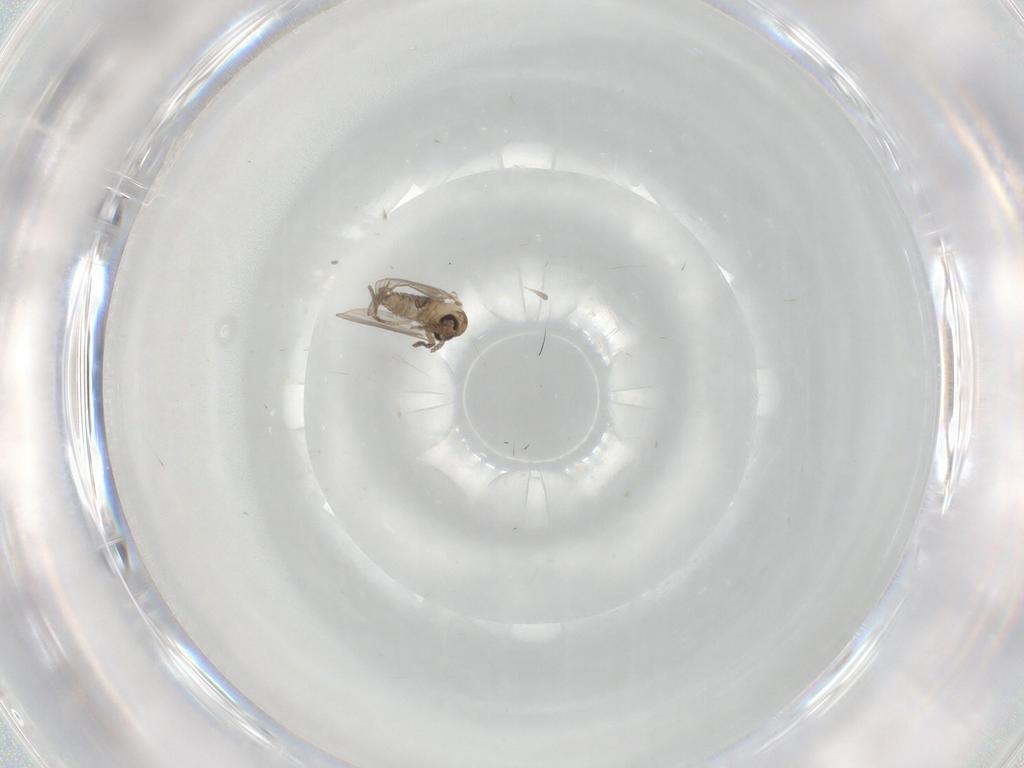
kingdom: Animalia
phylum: Arthropoda
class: Insecta
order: Diptera
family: Psychodidae
